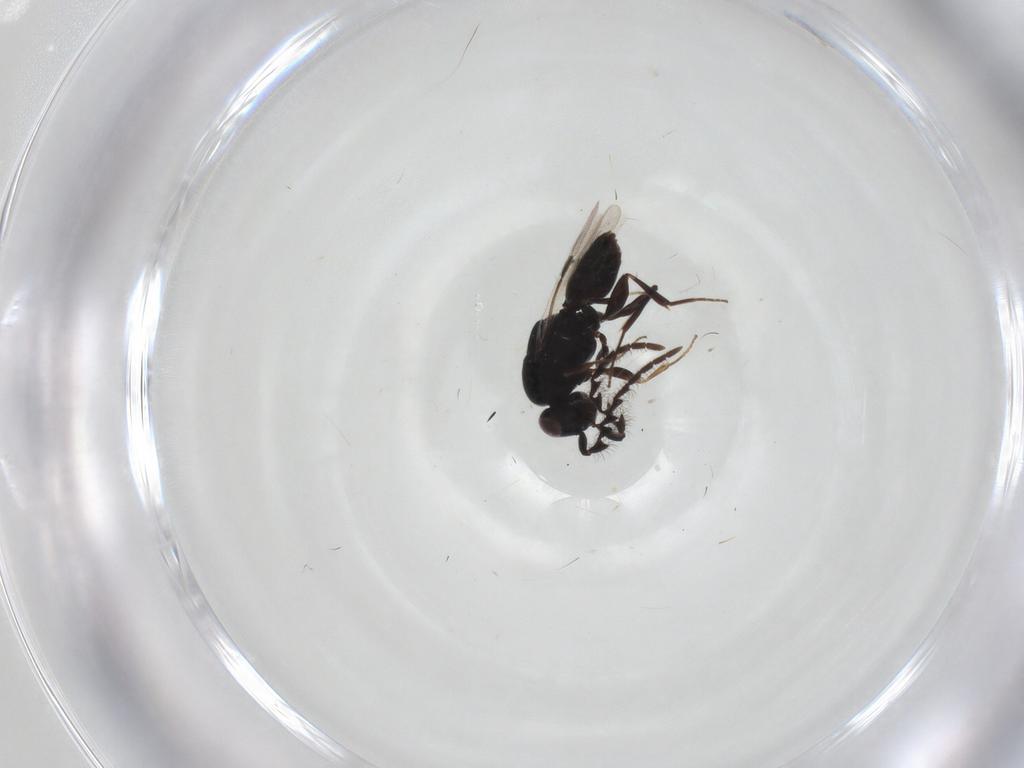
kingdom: Animalia
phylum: Arthropoda
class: Insecta
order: Hymenoptera
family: Megaspilidae
